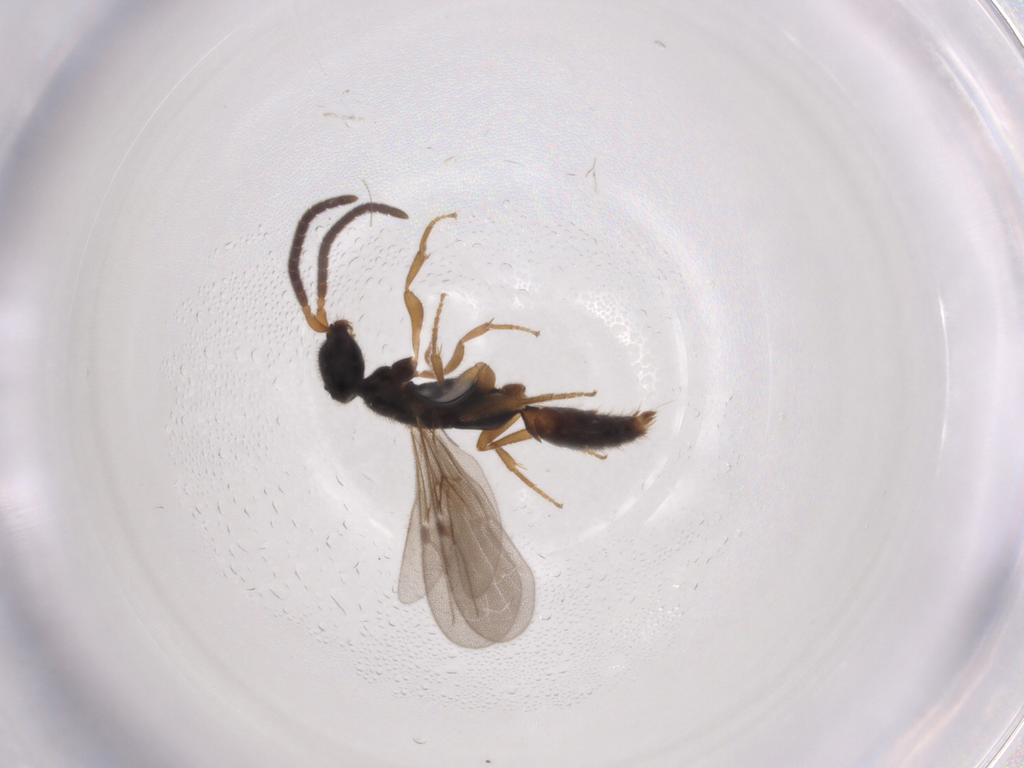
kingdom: Animalia
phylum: Arthropoda
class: Insecta
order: Hymenoptera
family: Bethylidae
